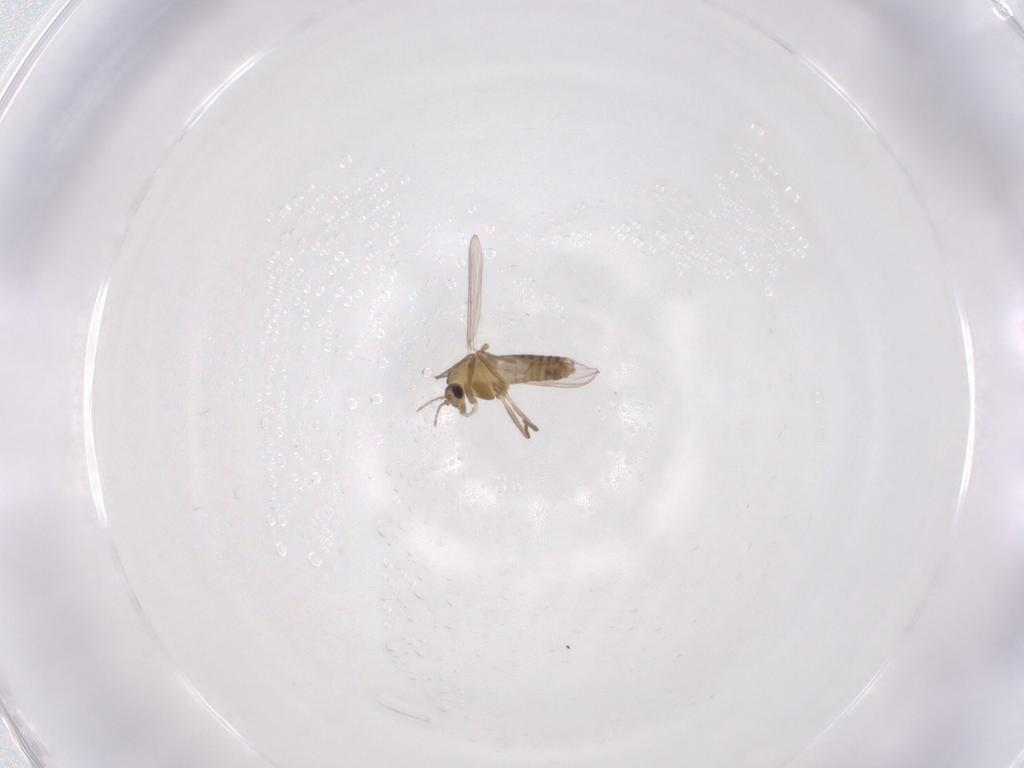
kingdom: Animalia
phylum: Arthropoda
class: Insecta
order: Diptera
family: Chironomidae
